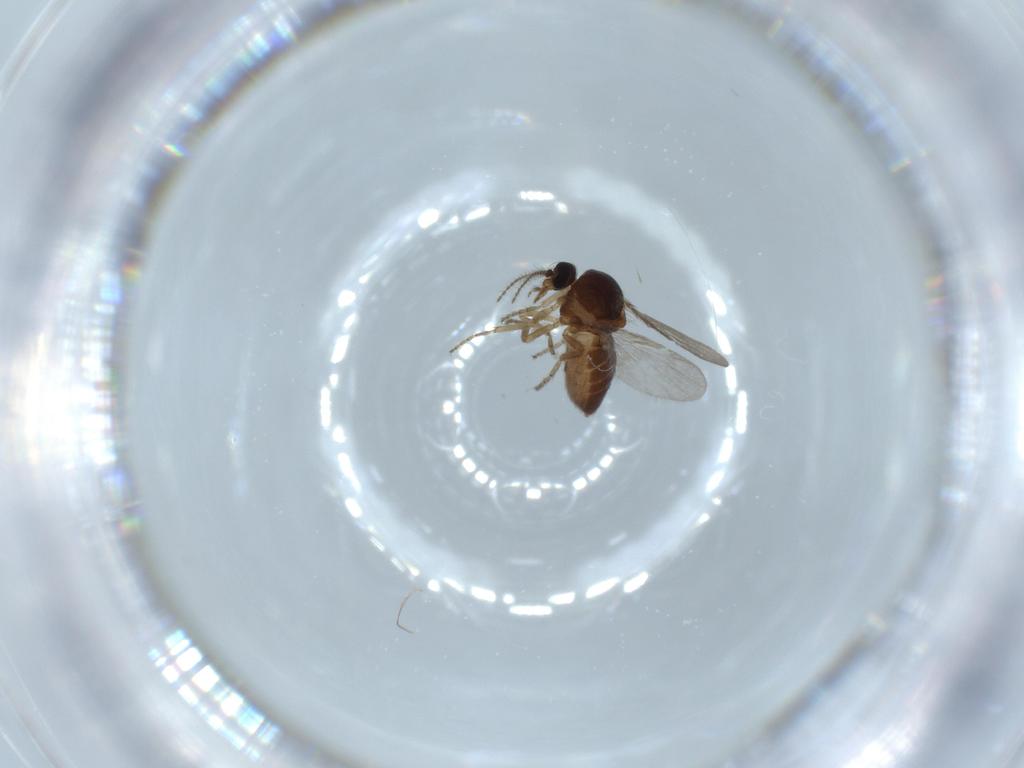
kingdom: Animalia
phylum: Arthropoda
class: Insecta
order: Diptera
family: Ceratopogonidae
